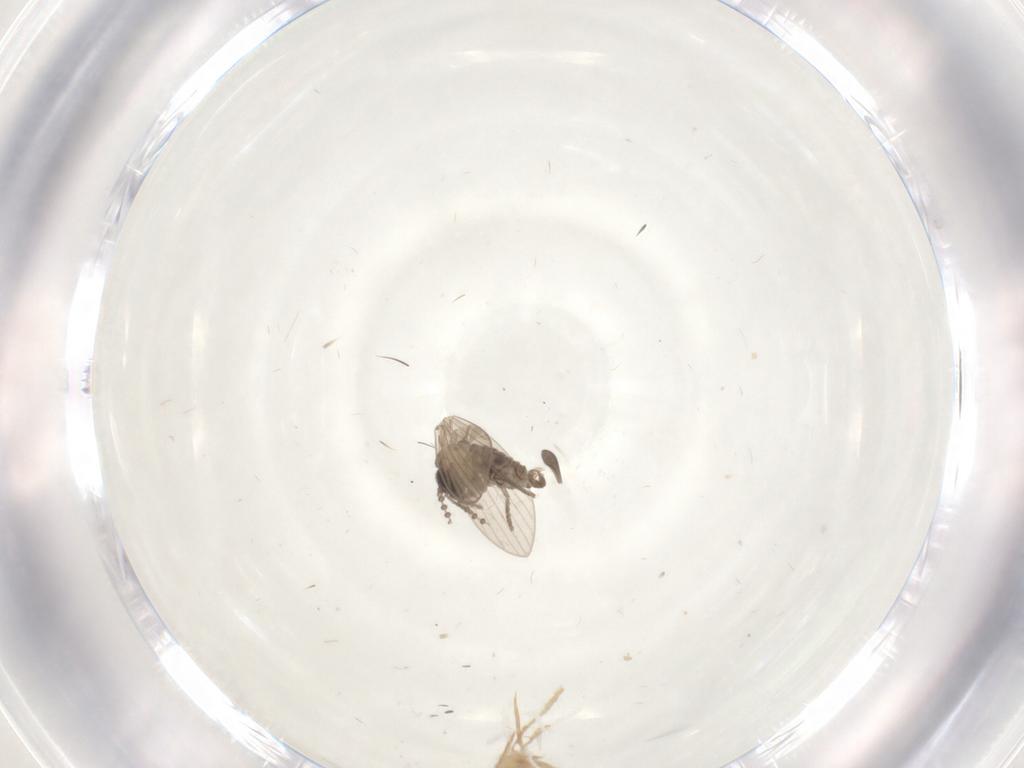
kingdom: Animalia
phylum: Arthropoda
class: Insecta
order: Diptera
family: Psychodidae
